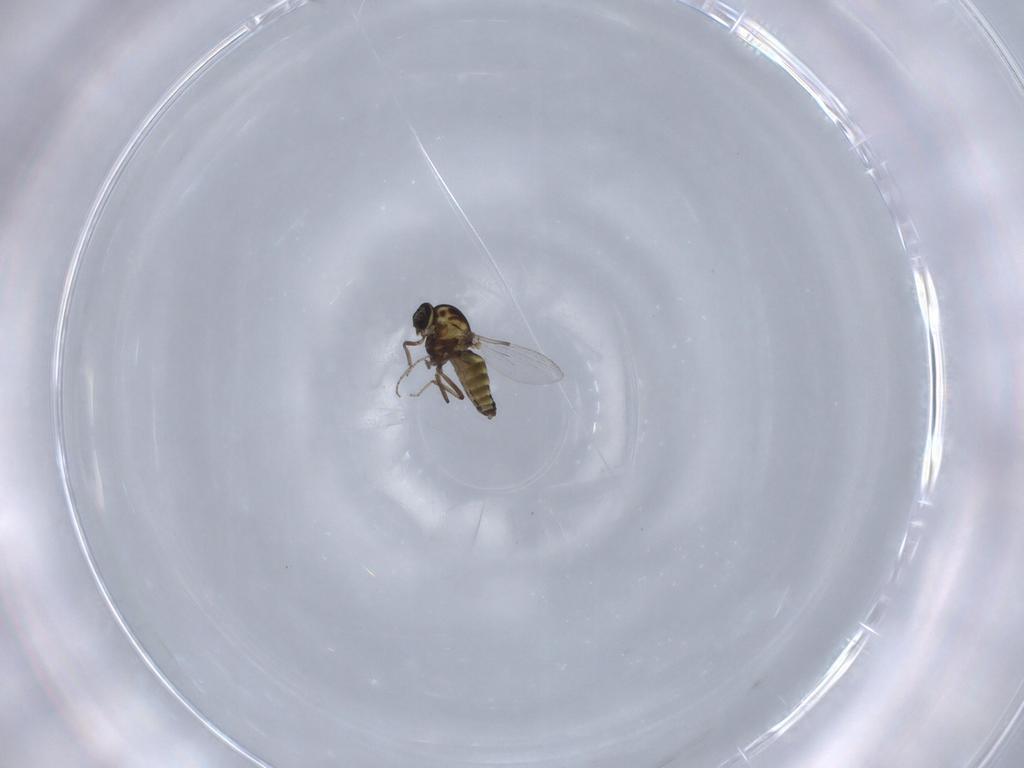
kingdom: Animalia
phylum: Arthropoda
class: Insecta
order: Diptera
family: Ceratopogonidae
